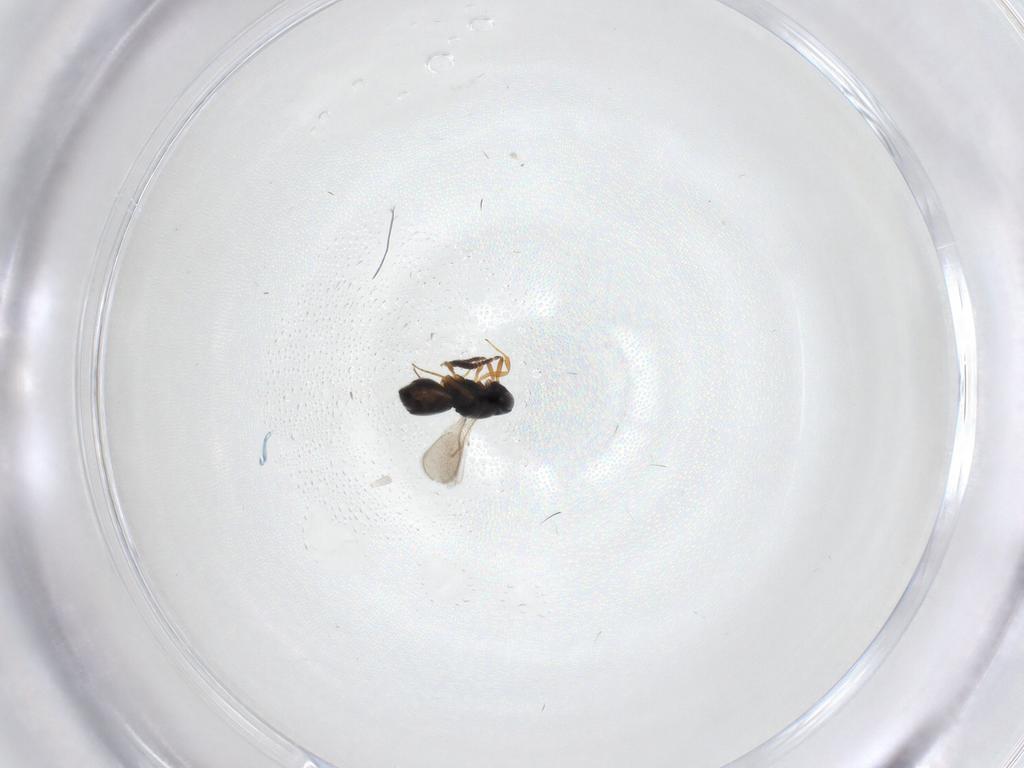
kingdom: Animalia
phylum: Arthropoda
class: Insecta
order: Hymenoptera
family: Scelionidae
